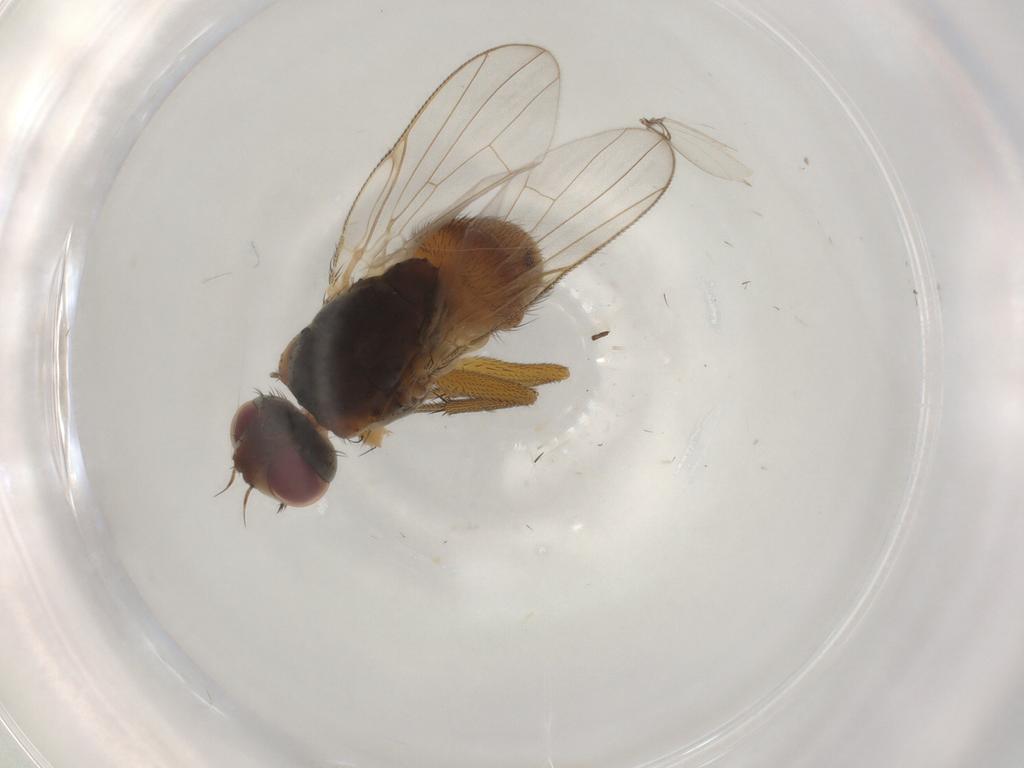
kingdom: Animalia
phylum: Arthropoda
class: Insecta
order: Diptera
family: Muscidae
